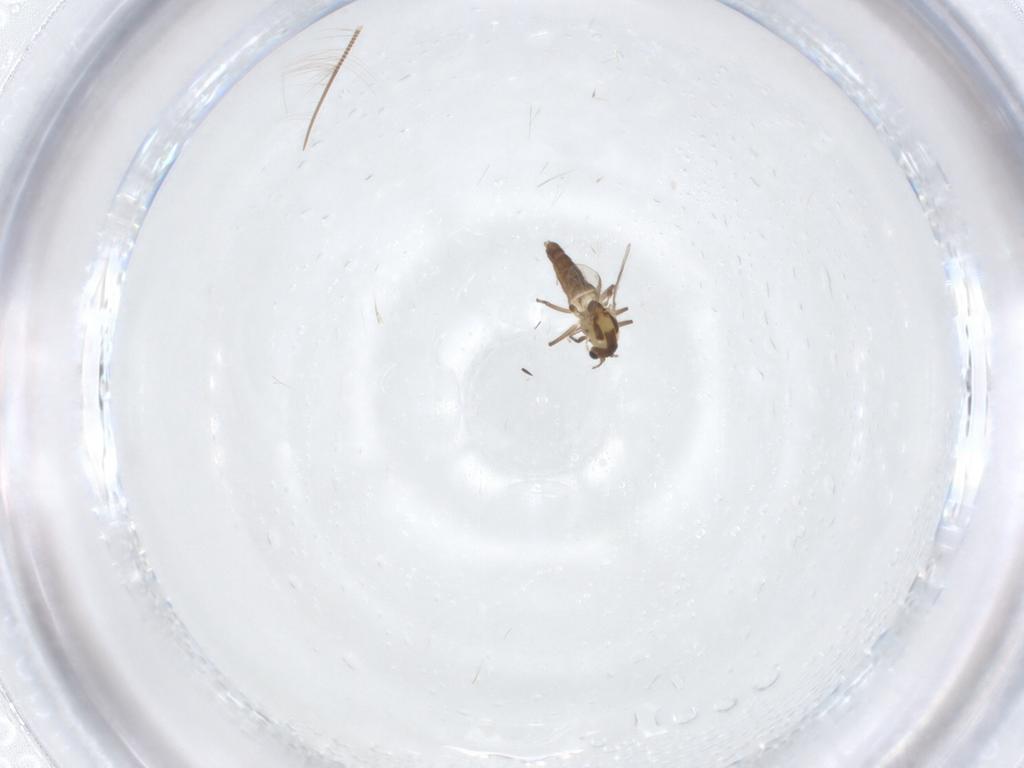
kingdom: Animalia
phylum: Arthropoda
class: Insecta
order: Diptera
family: Chironomidae
